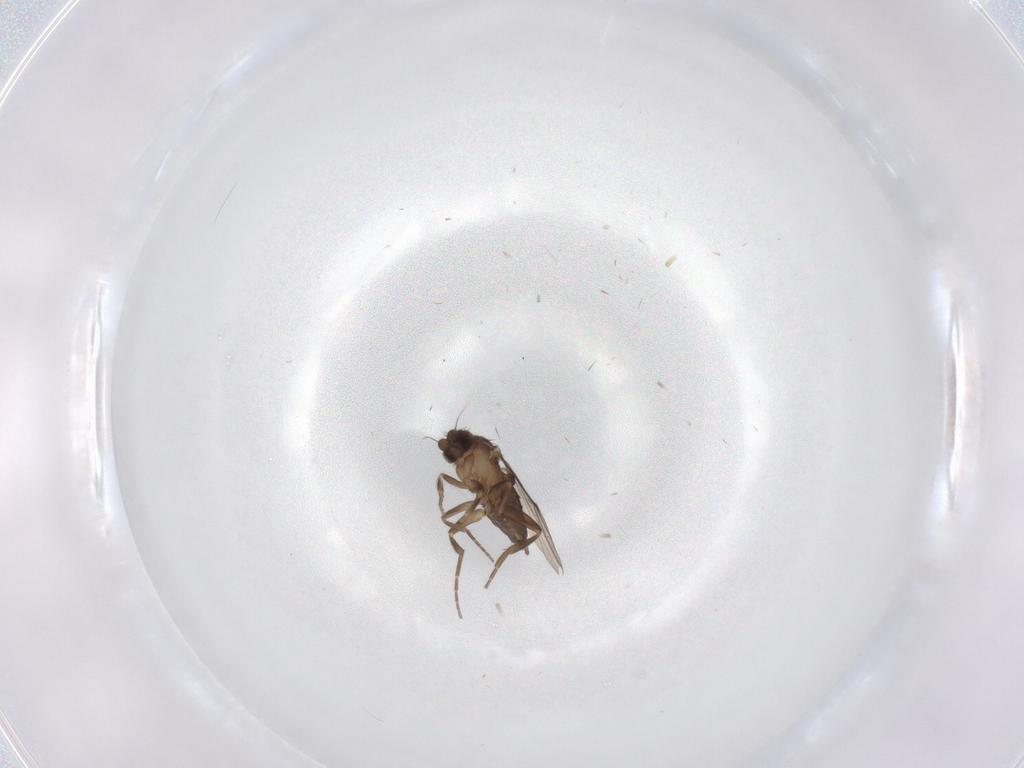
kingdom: Animalia
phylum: Arthropoda
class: Insecta
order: Diptera
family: Phoridae
